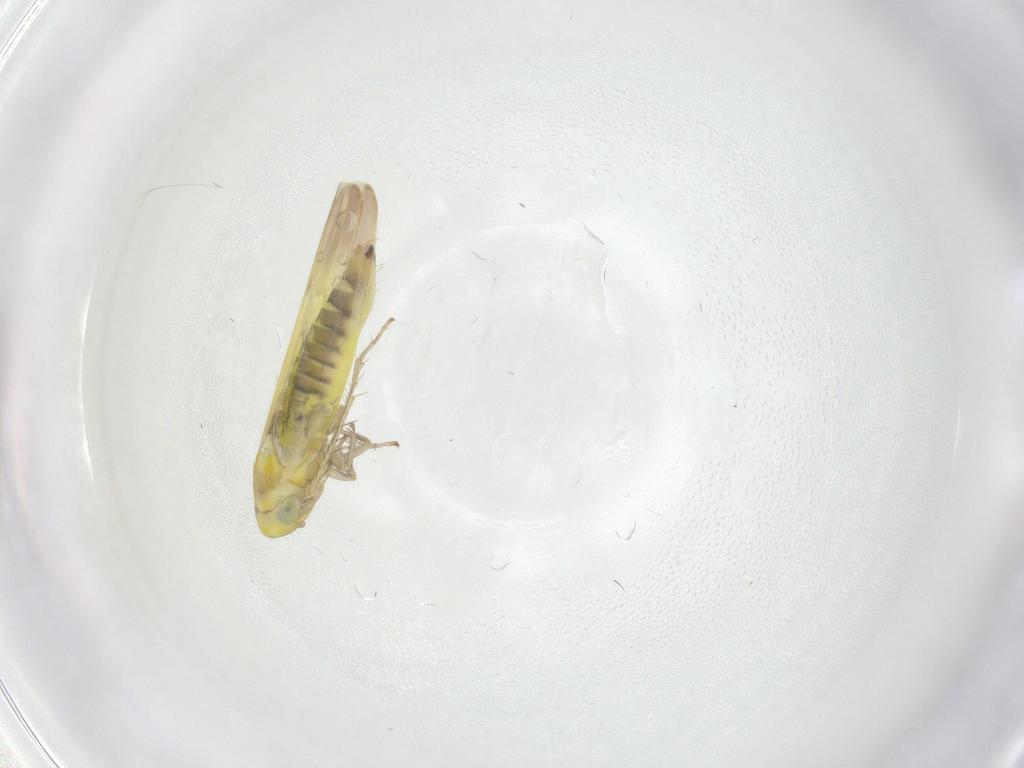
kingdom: Animalia
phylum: Arthropoda
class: Insecta
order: Hemiptera
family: Cicadellidae
